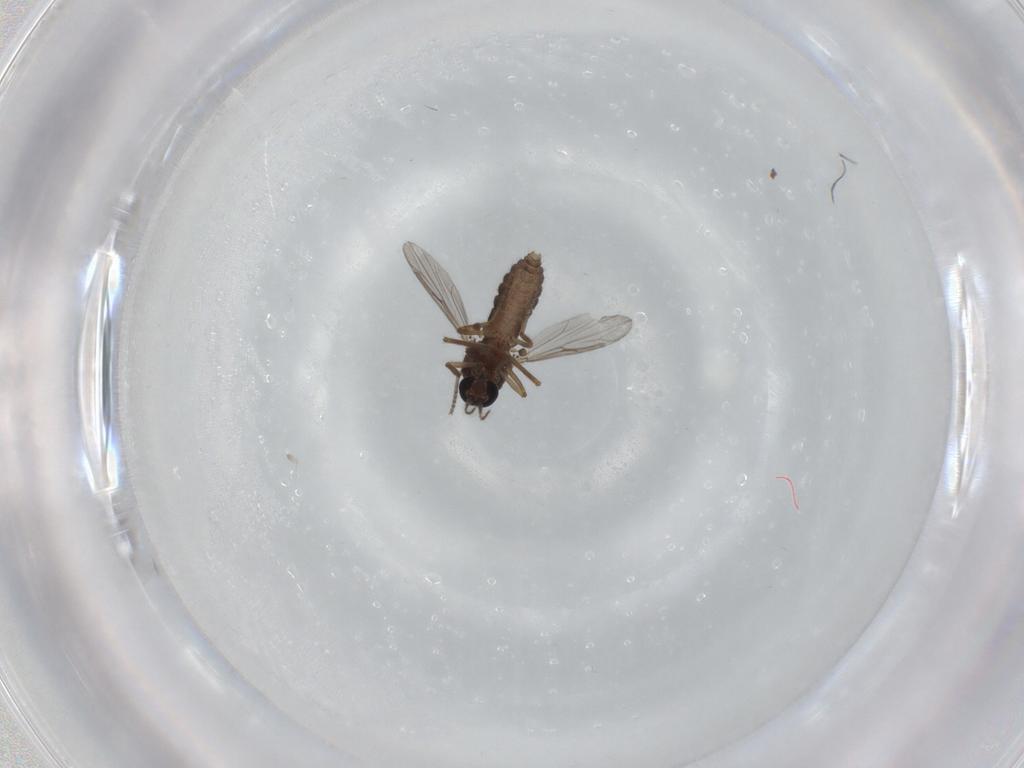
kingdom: Animalia
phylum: Arthropoda
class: Insecta
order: Diptera
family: Ceratopogonidae
